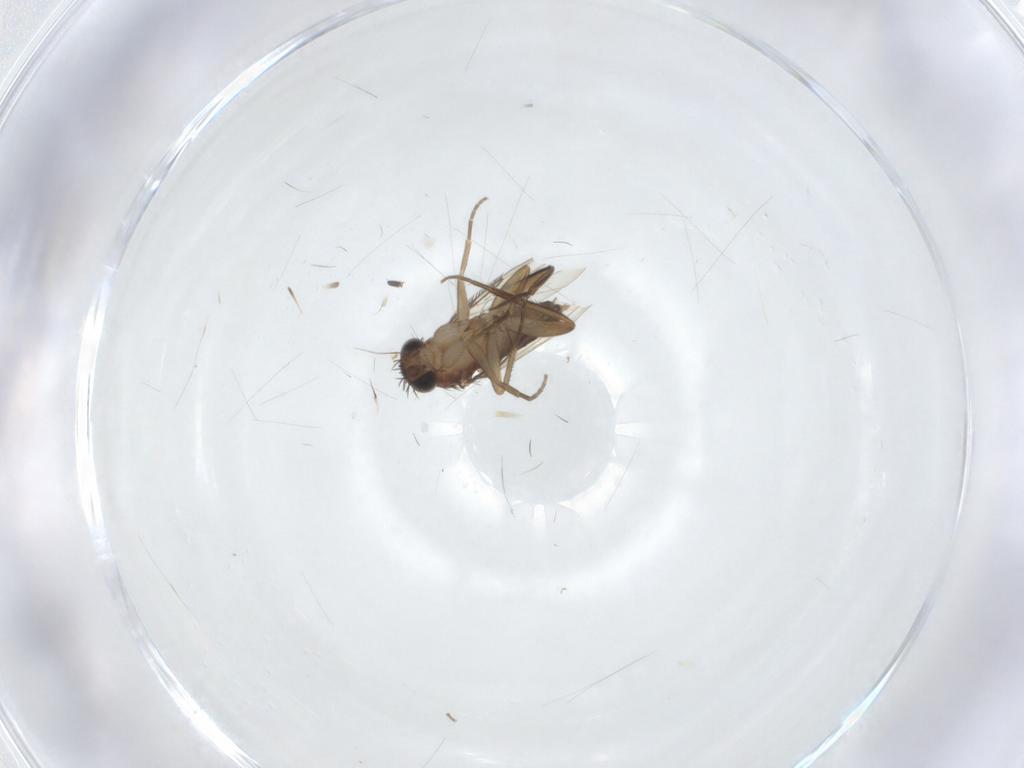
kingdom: Animalia
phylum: Arthropoda
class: Insecta
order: Diptera
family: Phoridae
